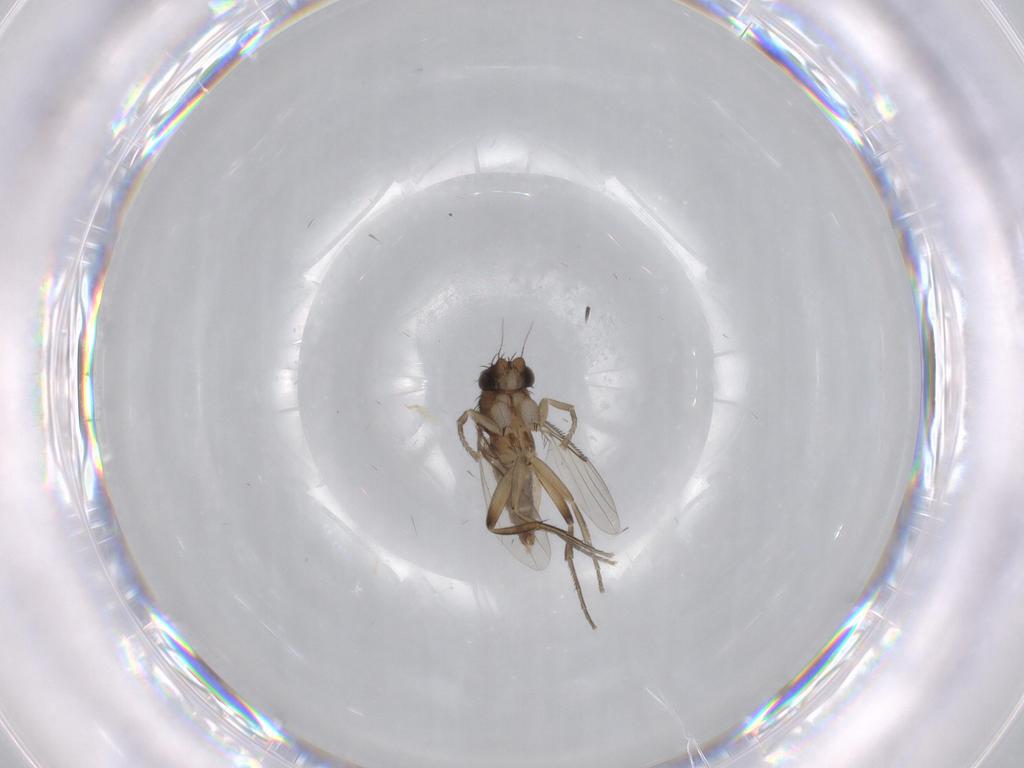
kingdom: Animalia
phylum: Arthropoda
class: Insecta
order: Diptera
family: Phoridae
